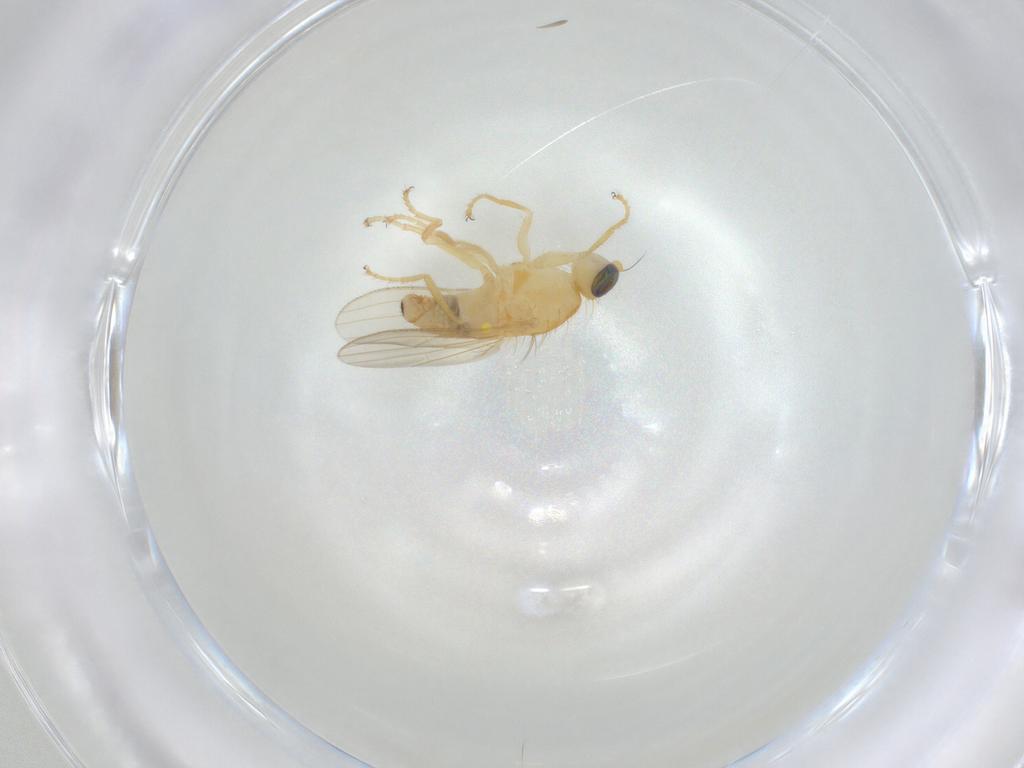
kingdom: Animalia
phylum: Arthropoda
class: Insecta
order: Diptera
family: Chyromyidae
